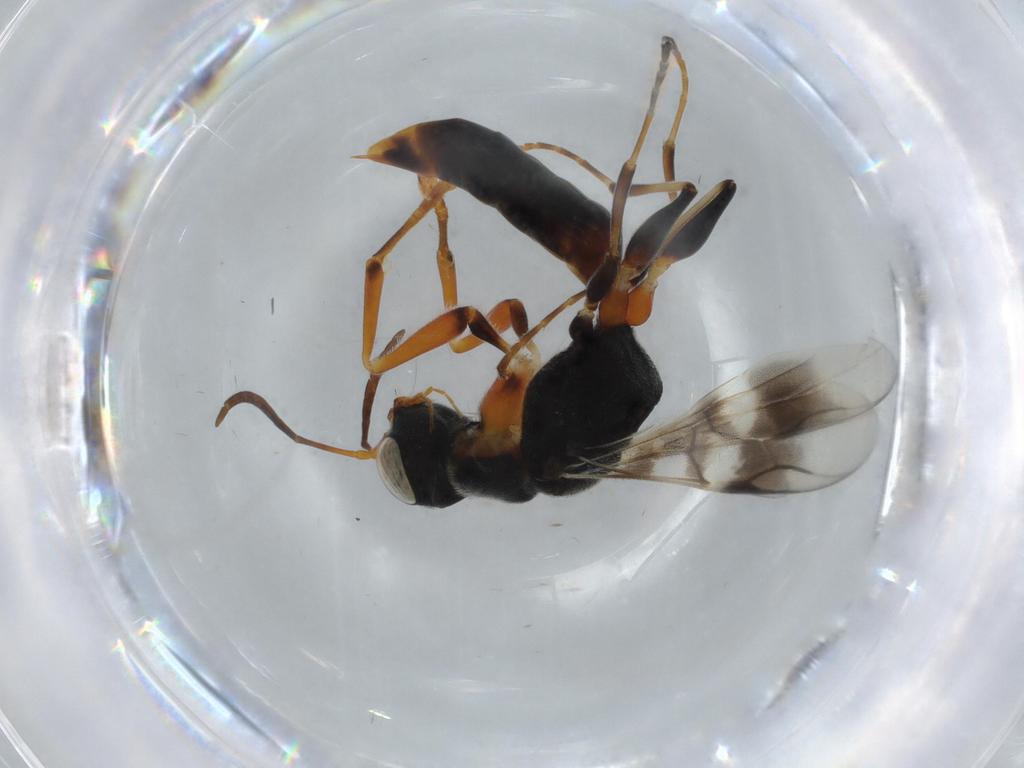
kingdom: Animalia
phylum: Arthropoda
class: Insecta
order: Hymenoptera
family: Dryinidae
